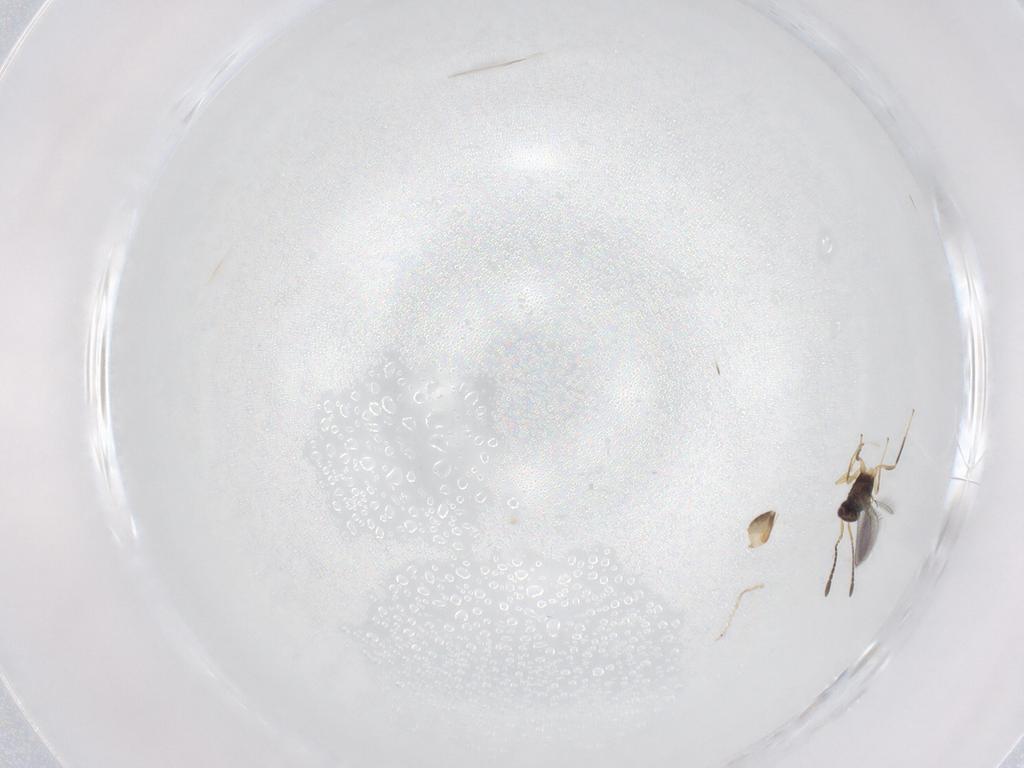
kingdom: Animalia
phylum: Arthropoda
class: Insecta
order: Hymenoptera
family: Mymaridae
